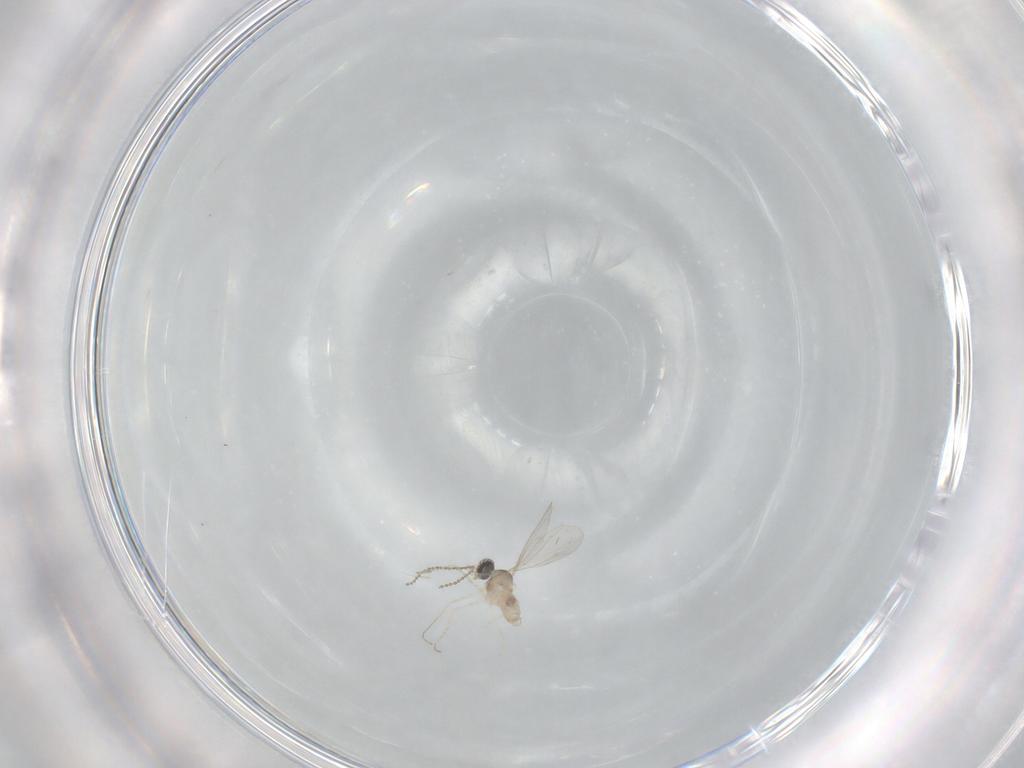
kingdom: Animalia
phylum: Arthropoda
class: Insecta
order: Diptera
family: Cecidomyiidae
